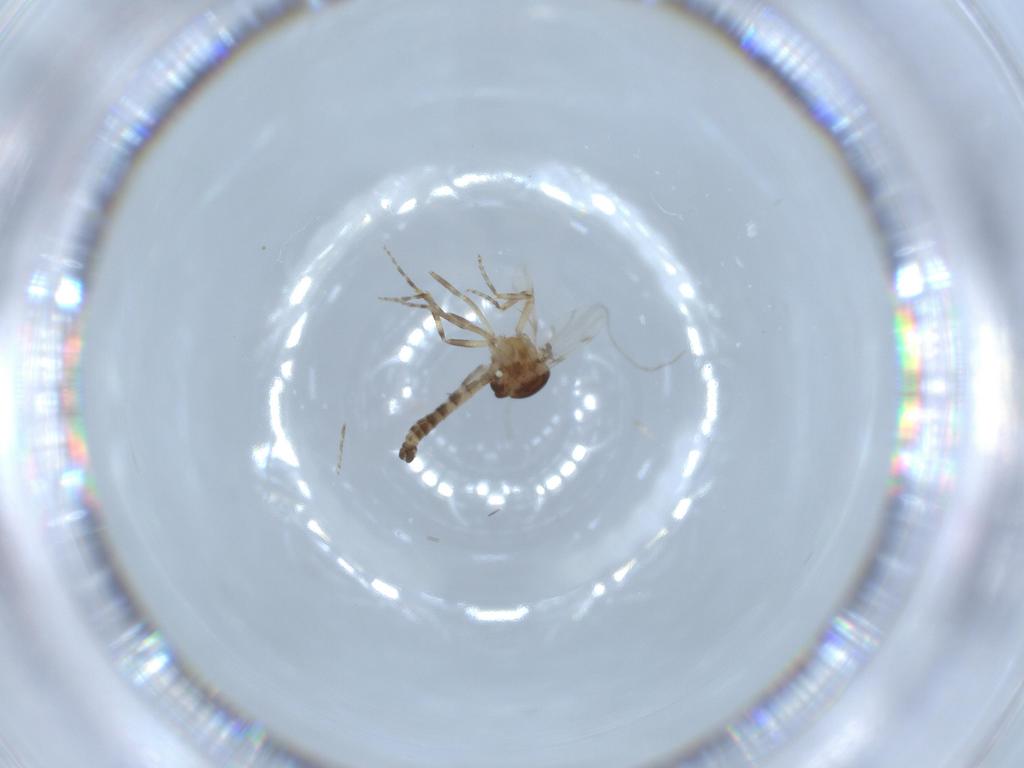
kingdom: Animalia
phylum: Arthropoda
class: Insecta
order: Diptera
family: Ceratopogonidae
